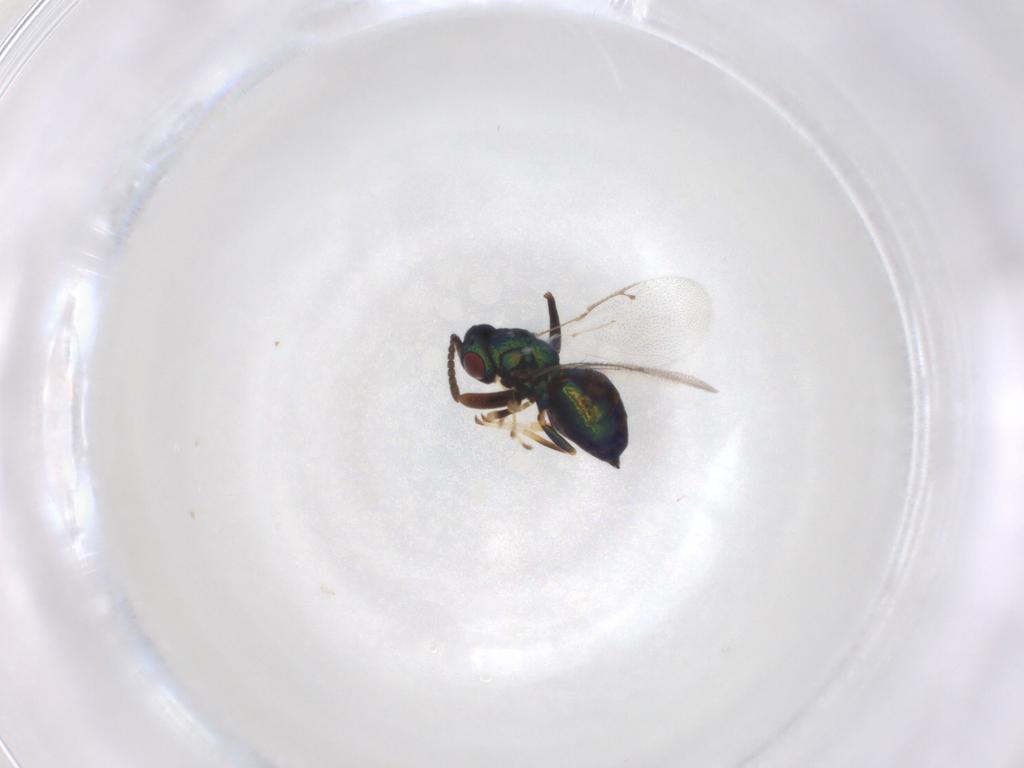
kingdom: Animalia
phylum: Arthropoda
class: Insecta
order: Hymenoptera
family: Halictidae
